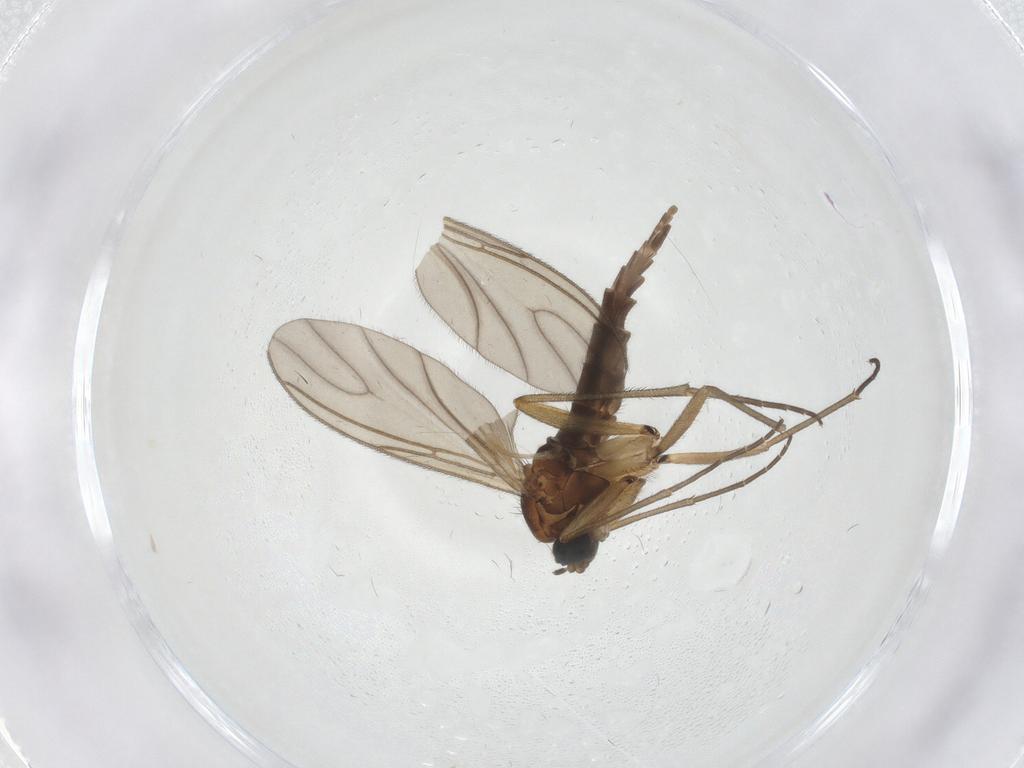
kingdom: Animalia
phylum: Arthropoda
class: Insecta
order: Diptera
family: Sciaridae
